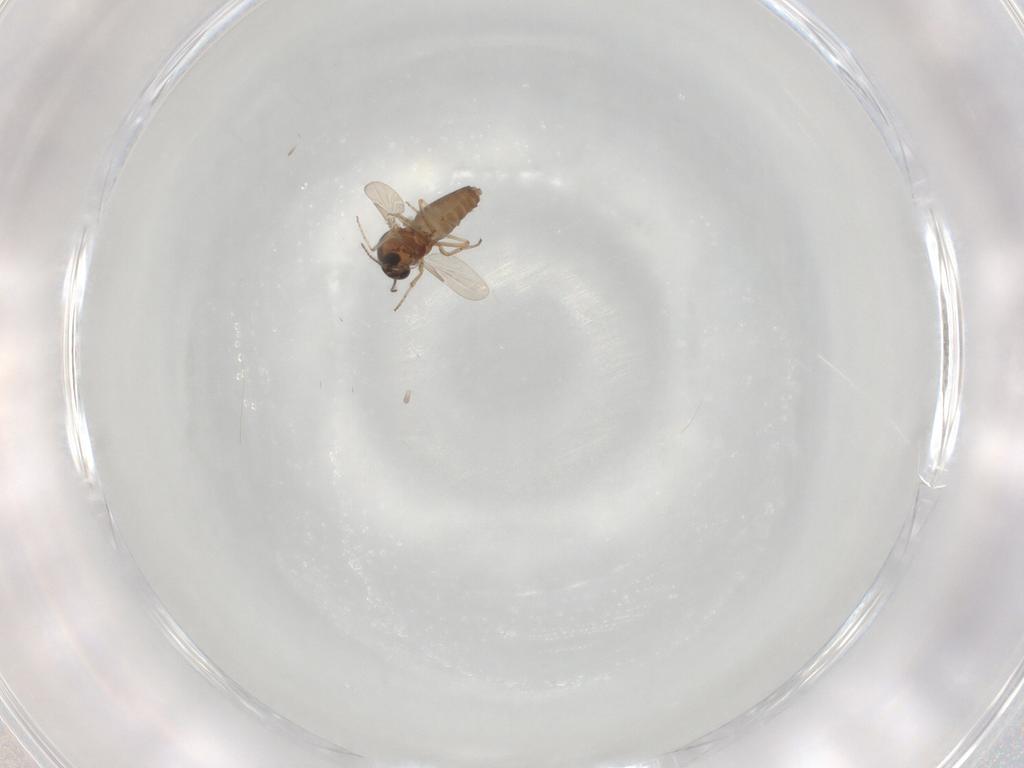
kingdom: Animalia
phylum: Arthropoda
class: Insecta
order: Diptera
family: Ceratopogonidae
